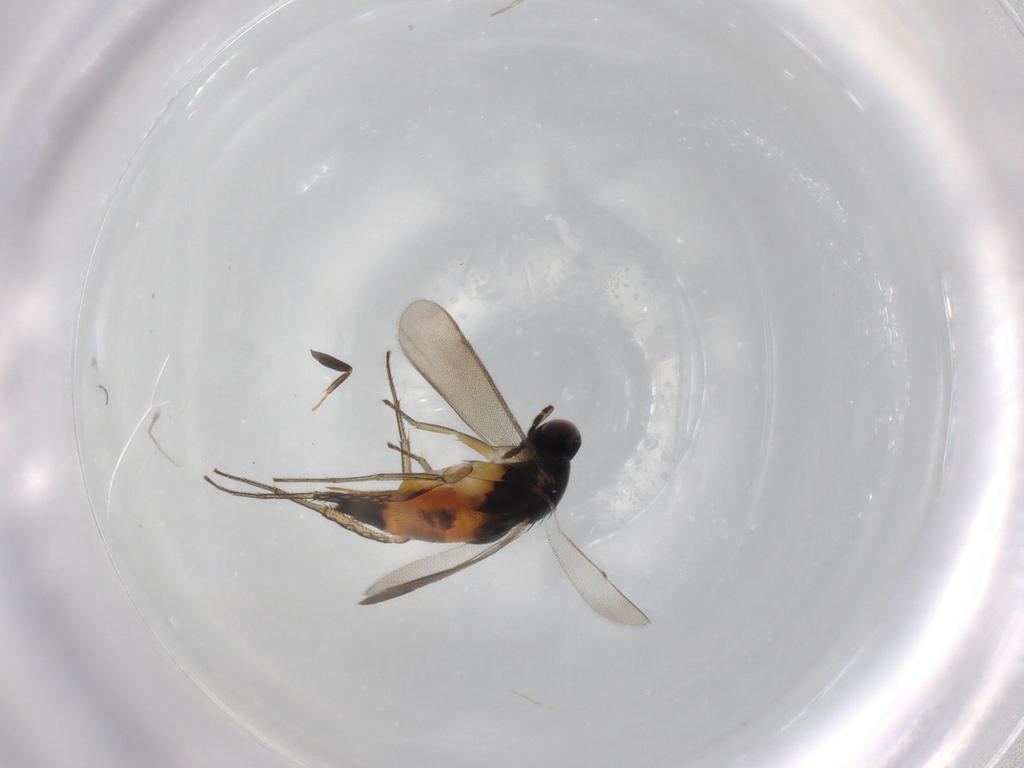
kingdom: Animalia
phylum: Arthropoda
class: Insecta
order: Hymenoptera
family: Eulophidae
